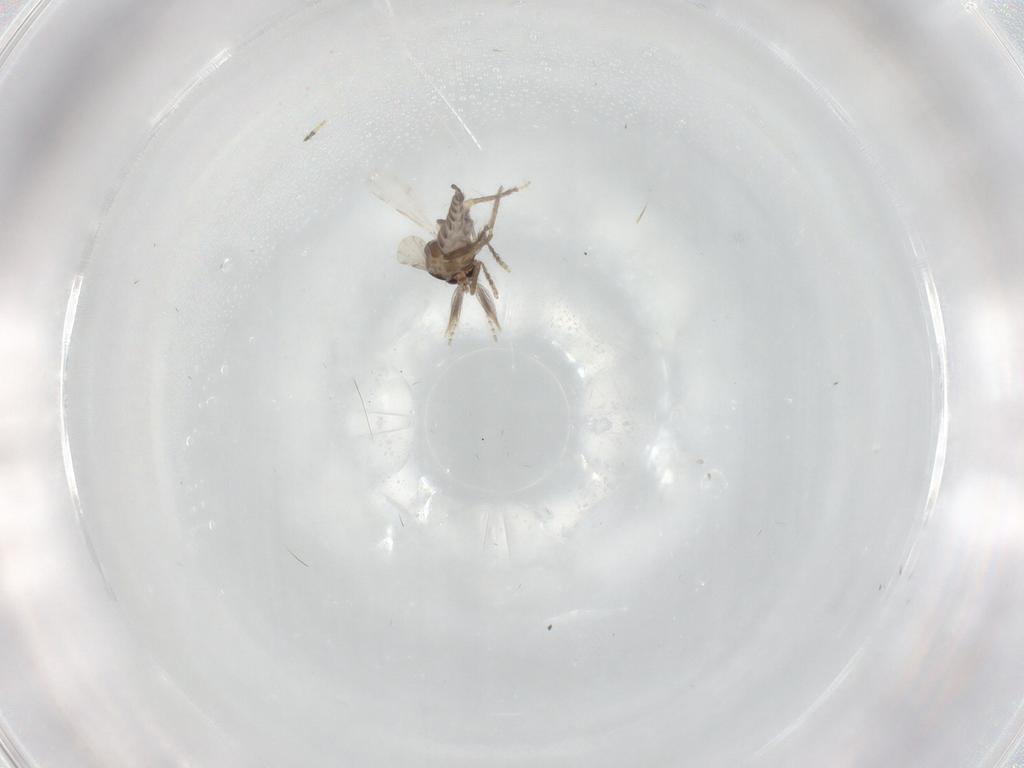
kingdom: Animalia
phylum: Arthropoda
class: Insecta
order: Diptera
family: Ceratopogonidae
